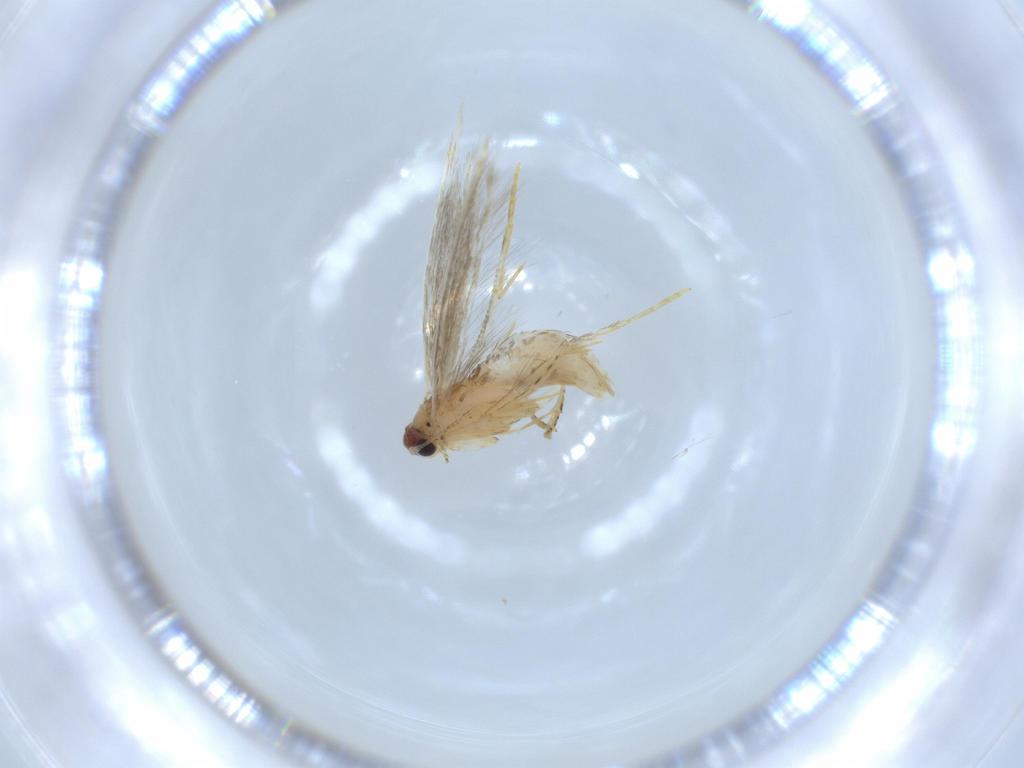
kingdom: Animalia
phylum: Arthropoda
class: Insecta
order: Lepidoptera
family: Tineidae
